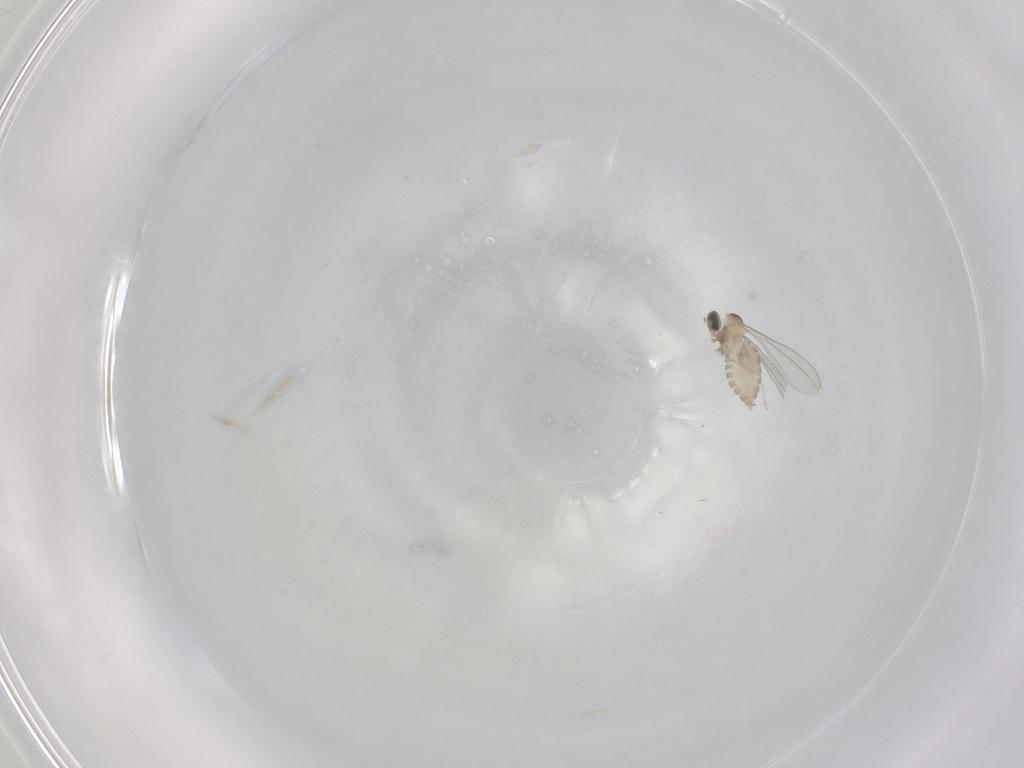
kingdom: Animalia
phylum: Arthropoda
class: Insecta
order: Diptera
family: Cecidomyiidae
